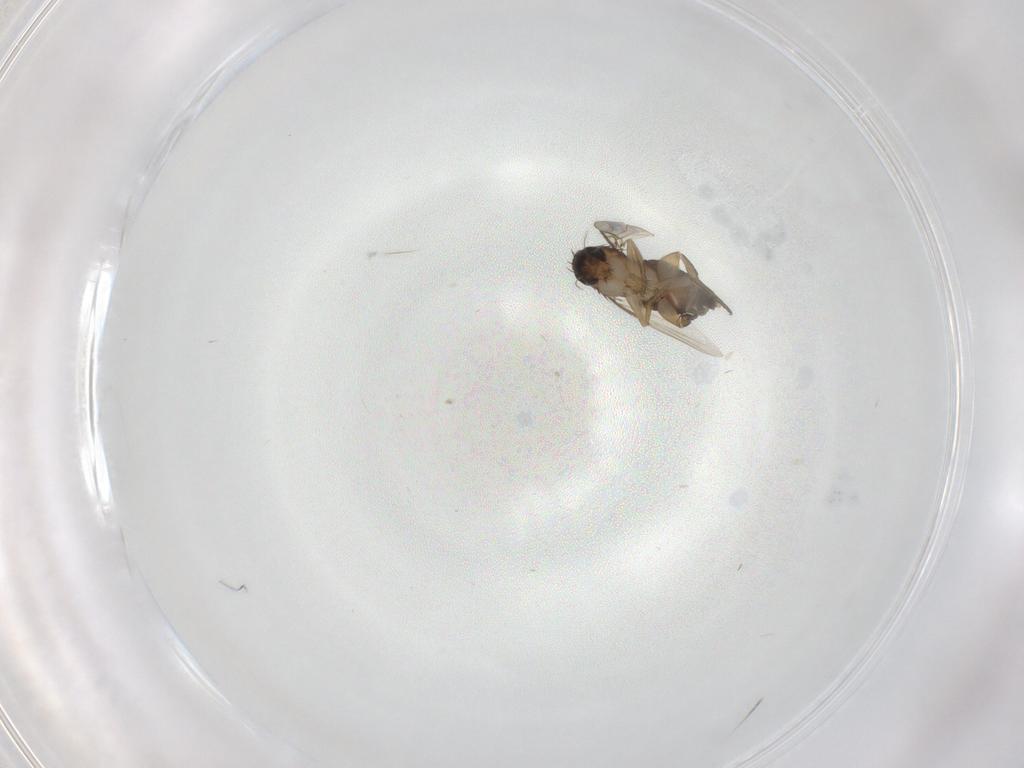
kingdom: Animalia
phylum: Arthropoda
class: Insecta
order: Diptera
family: Phoridae
